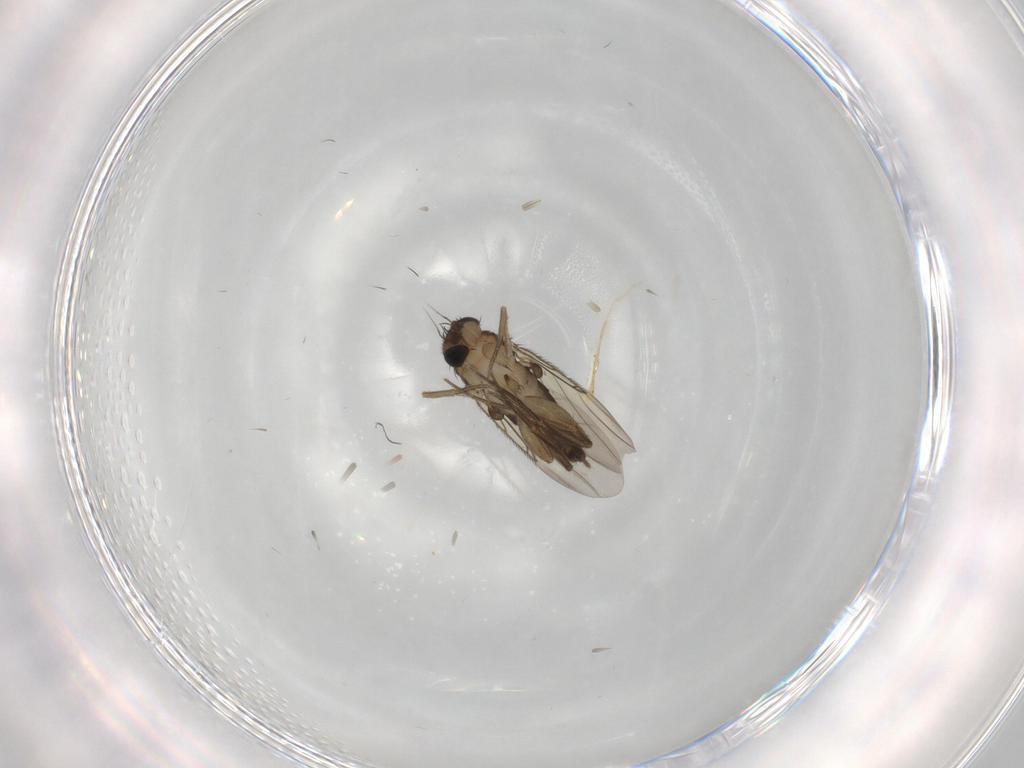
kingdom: Animalia
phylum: Arthropoda
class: Insecta
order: Diptera
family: Phoridae
